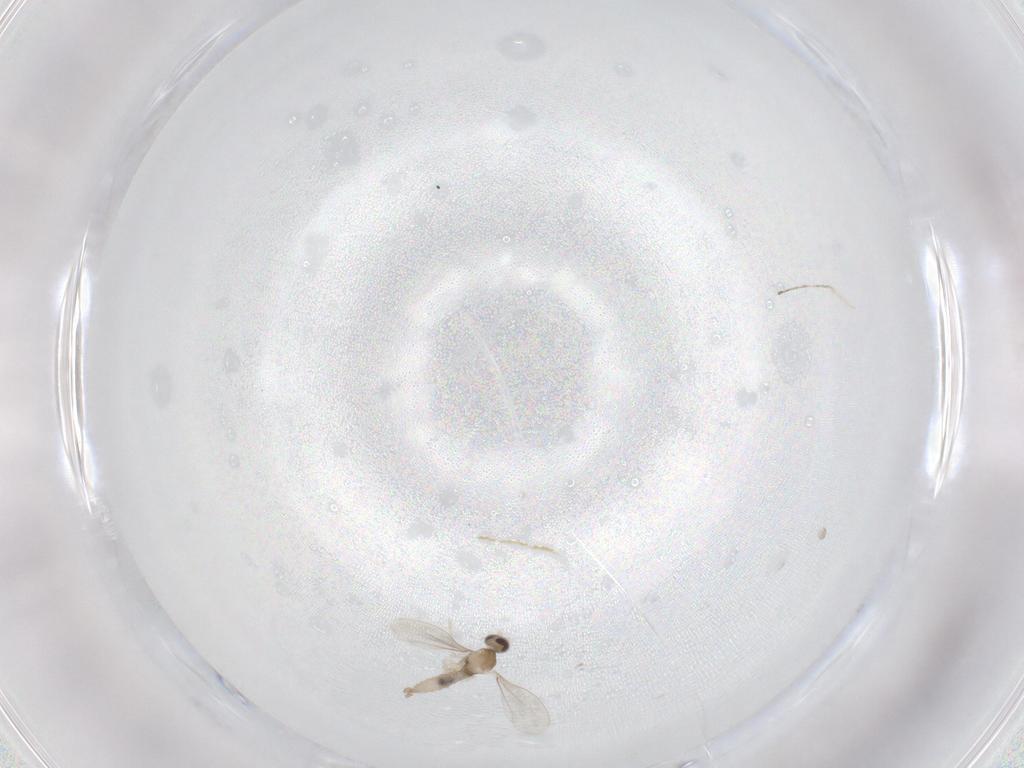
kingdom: Animalia
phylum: Arthropoda
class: Insecta
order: Diptera
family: Cecidomyiidae
